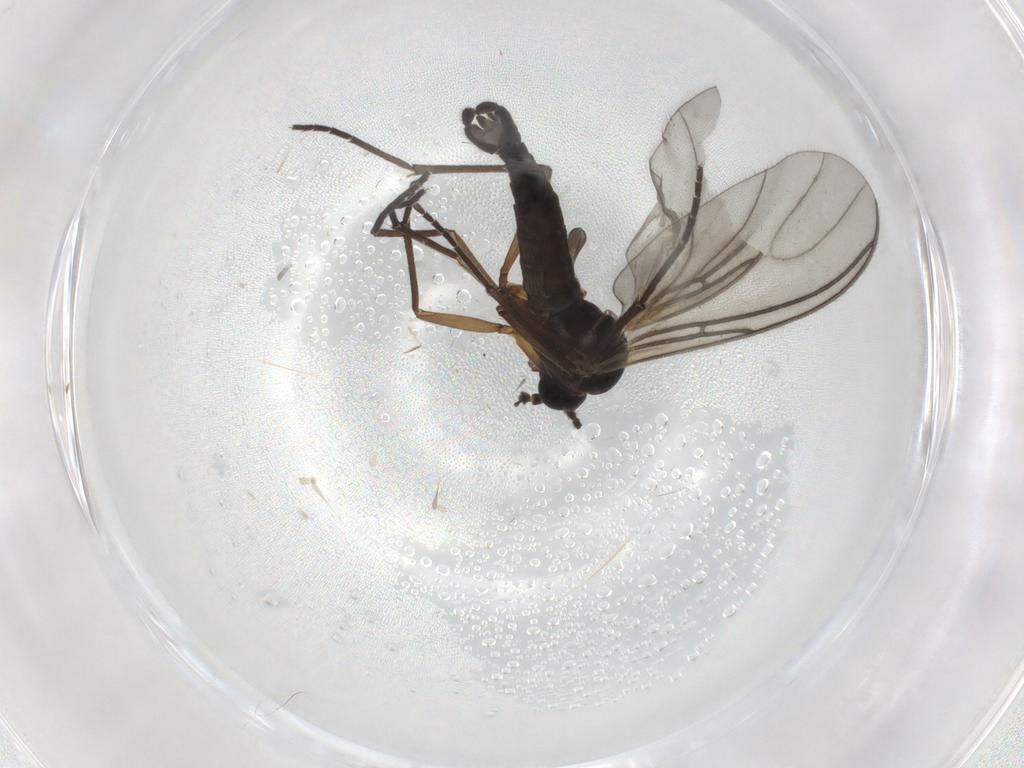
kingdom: Animalia
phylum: Arthropoda
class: Insecta
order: Diptera
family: Sciaridae
